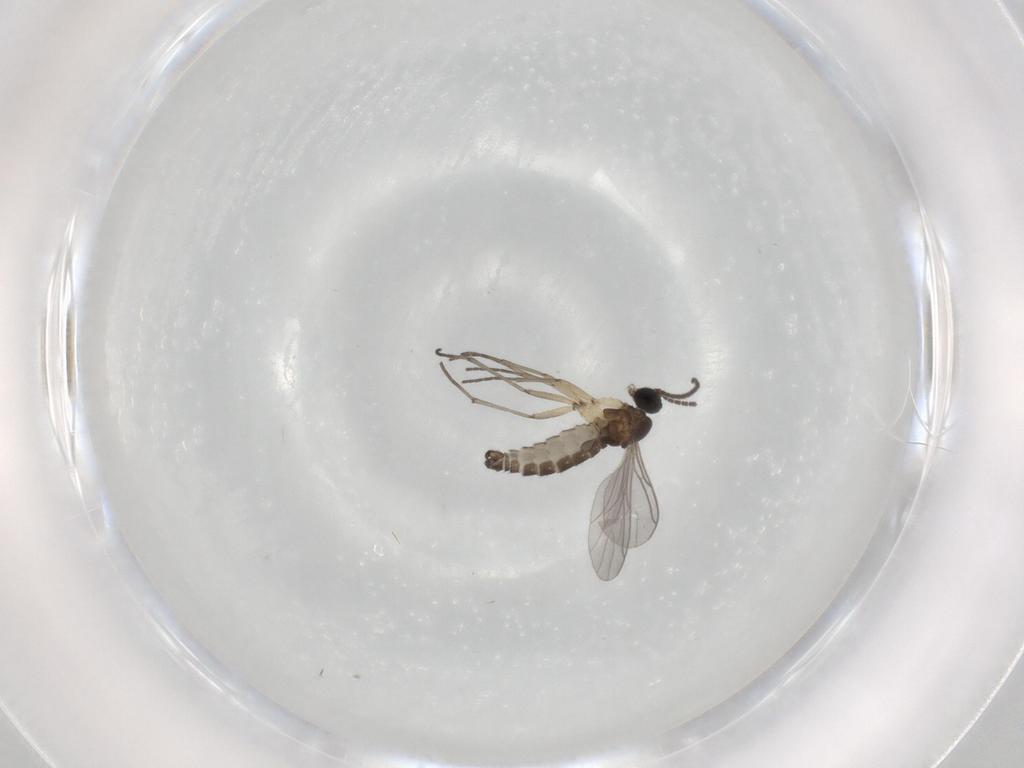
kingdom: Animalia
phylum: Arthropoda
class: Insecta
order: Diptera
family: Sciaridae
